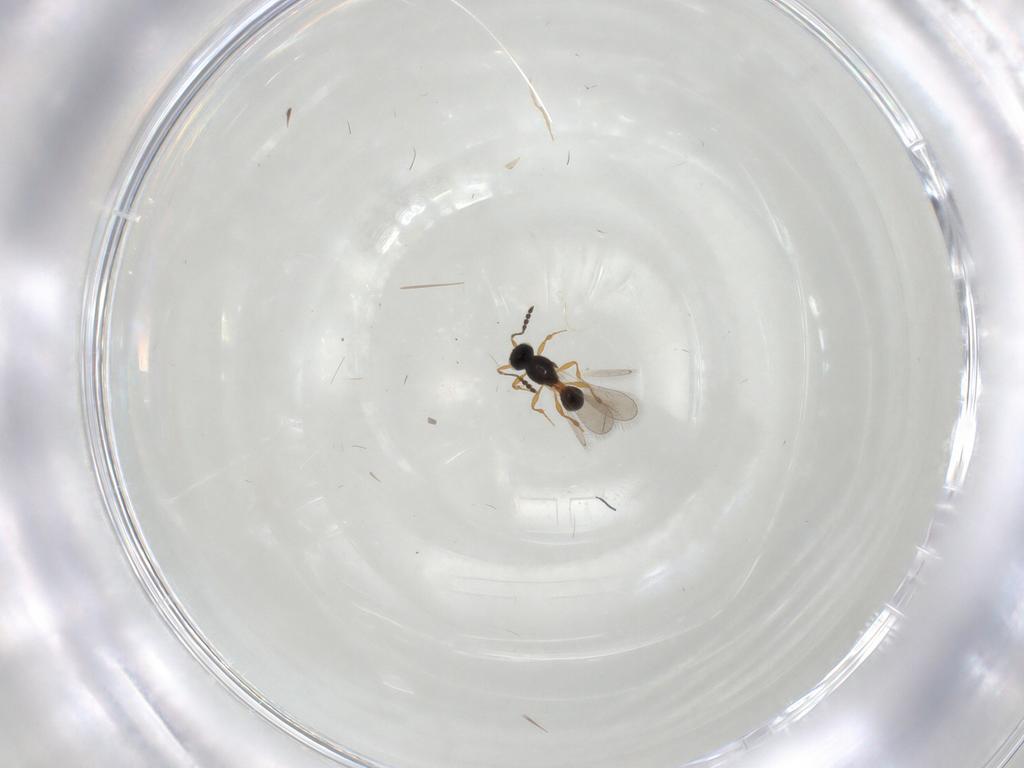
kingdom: Animalia
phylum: Arthropoda
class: Insecta
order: Hymenoptera
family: Platygastridae
